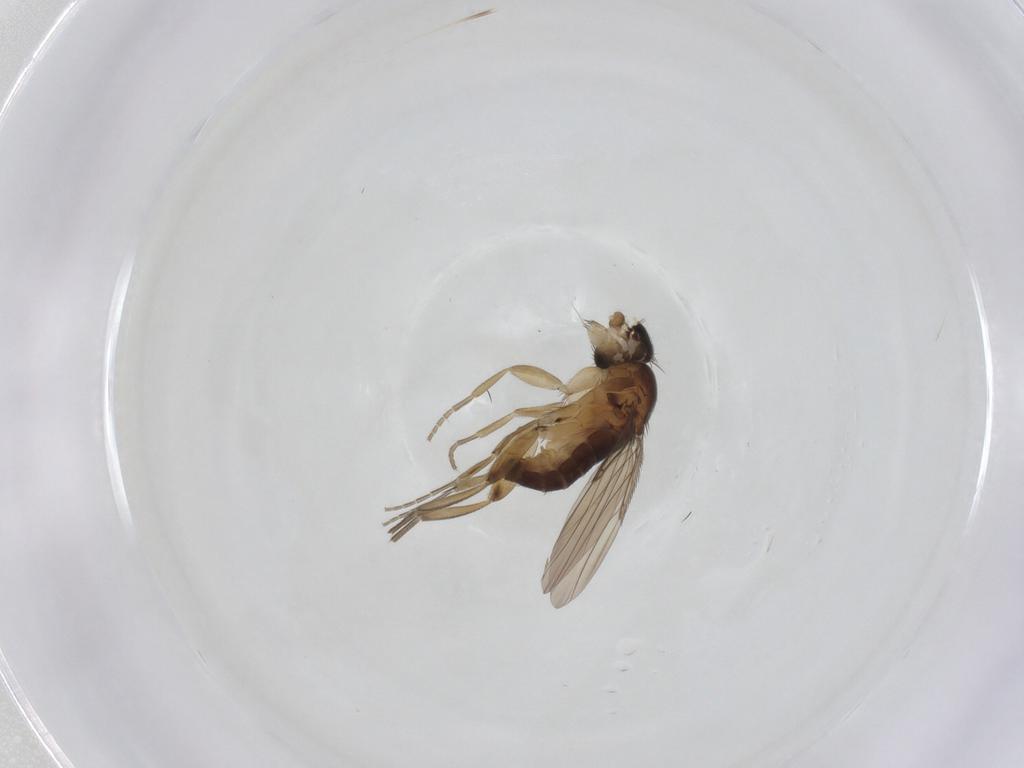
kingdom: Animalia
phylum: Arthropoda
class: Insecta
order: Diptera
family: Phoridae
